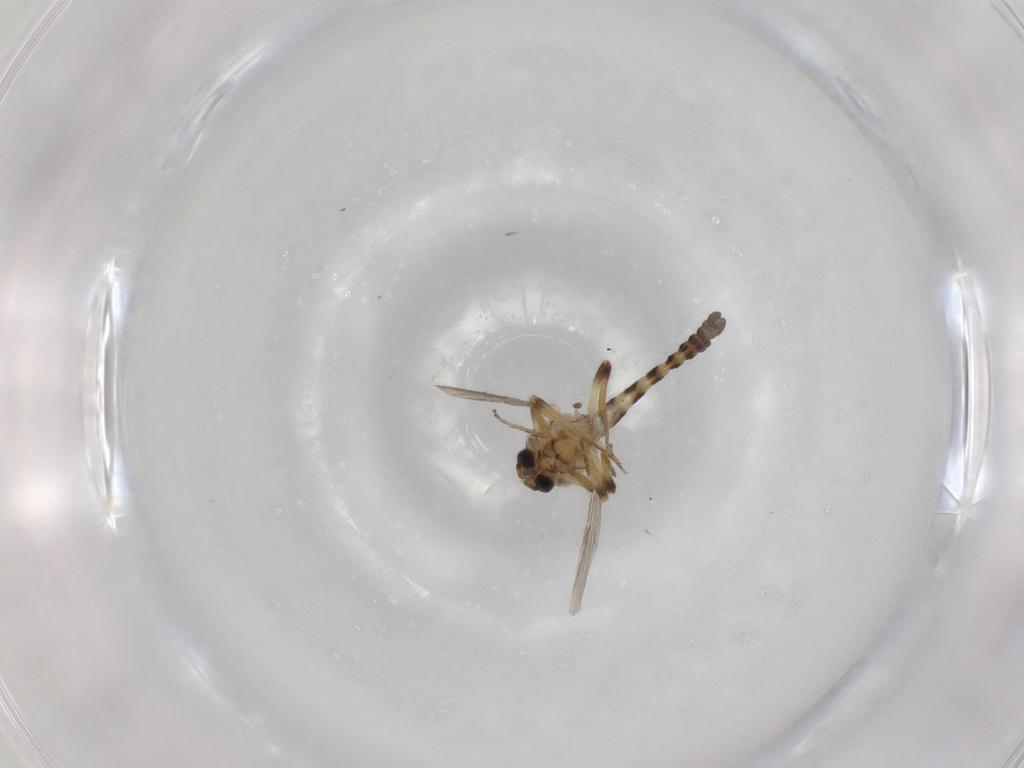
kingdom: Animalia
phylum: Arthropoda
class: Insecta
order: Diptera
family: Ceratopogonidae
